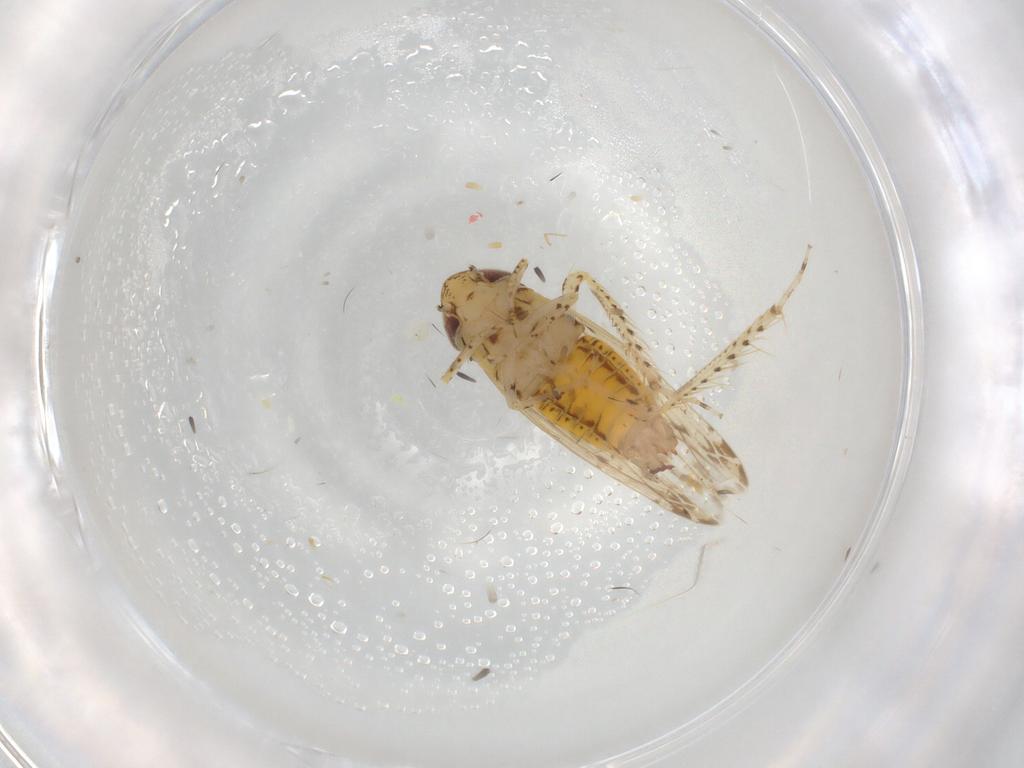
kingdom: Animalia
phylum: Arthropoda
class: Insecta
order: Hemiptera
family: Cicadellidae
